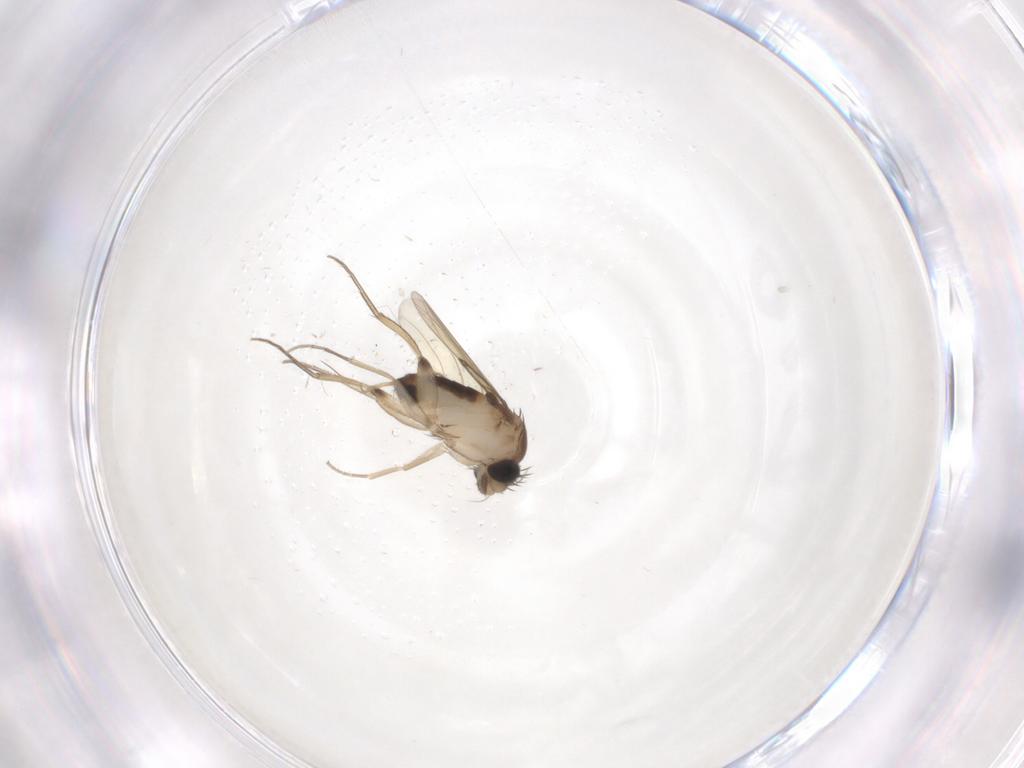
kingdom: Animalia
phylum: Arthropoda
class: Insecta
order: Diptera
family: Phoridae
